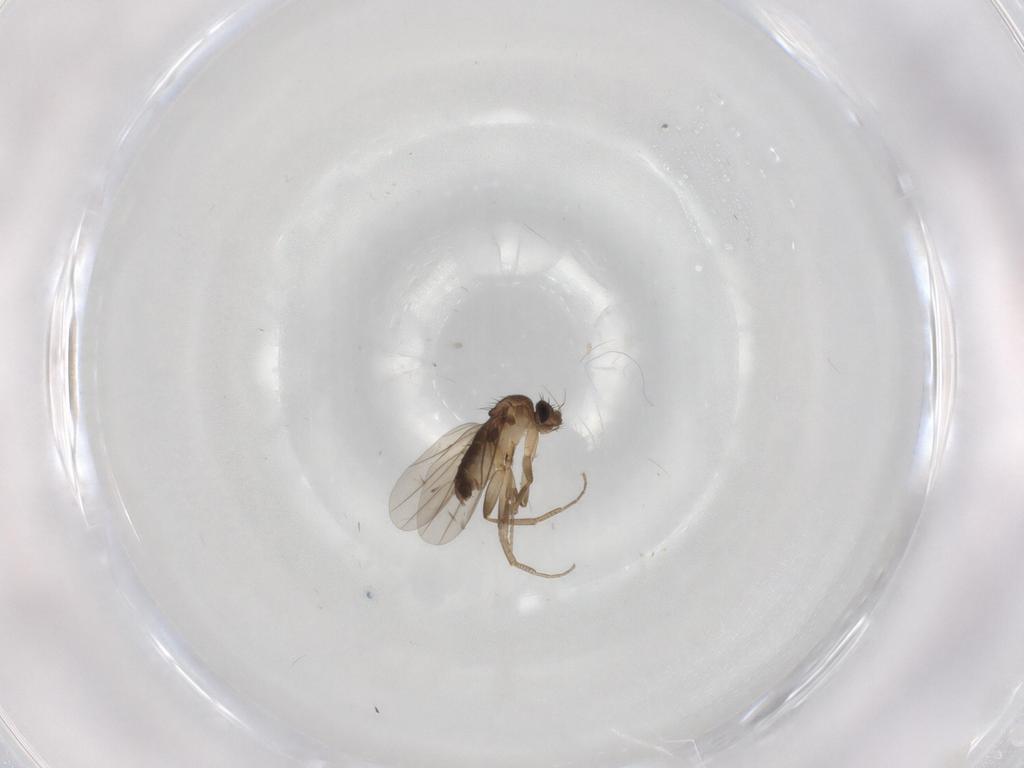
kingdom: Animalia
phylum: Arthropoda
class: Insecta
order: Diptera
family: Phoridae
